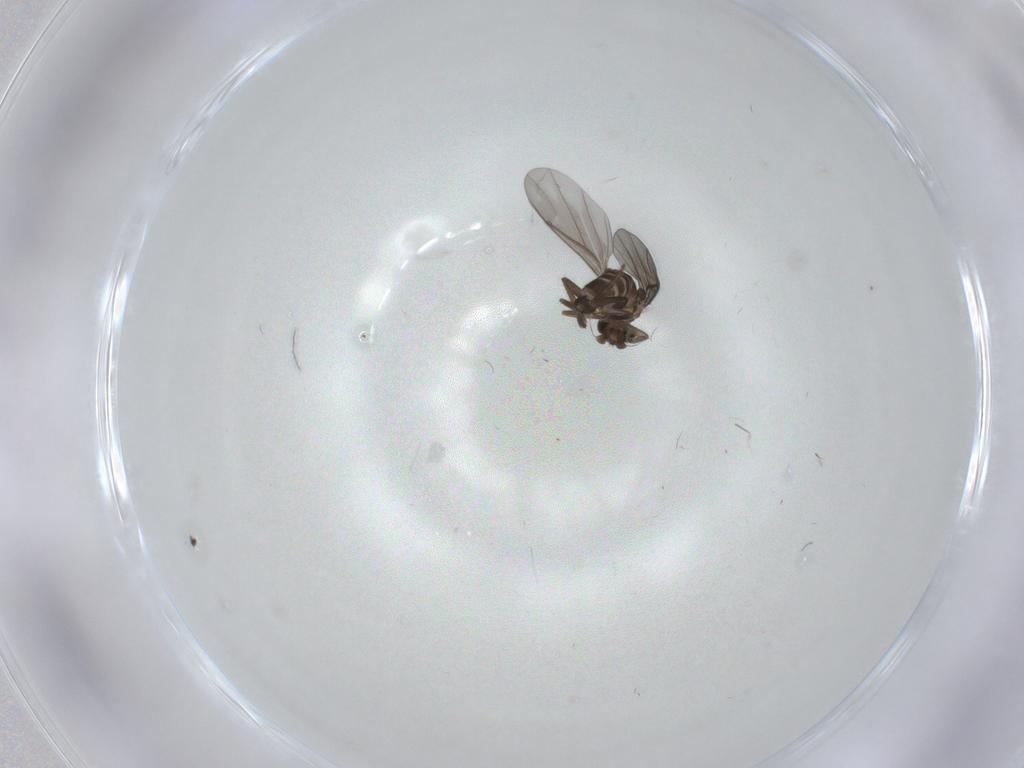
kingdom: Animalia
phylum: Arthropoda
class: Insecta
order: Diptera
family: Phoridae
